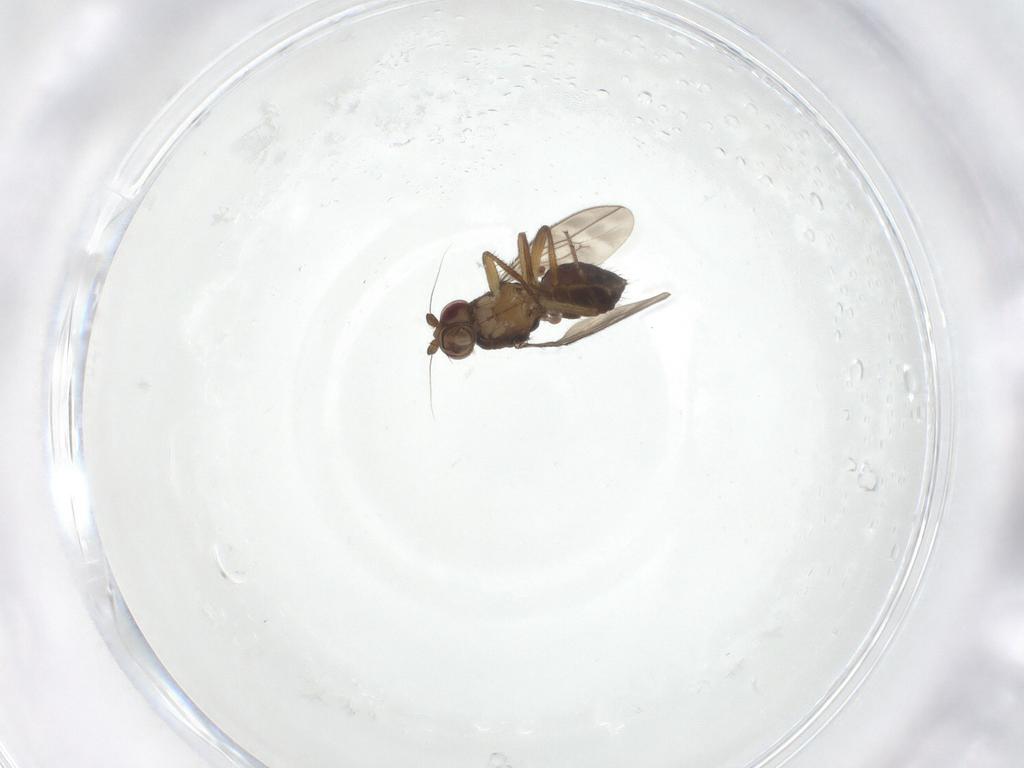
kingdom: Animalia
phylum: Arthropoda
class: Insecta
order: Diptera
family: Sphaeroceridae
